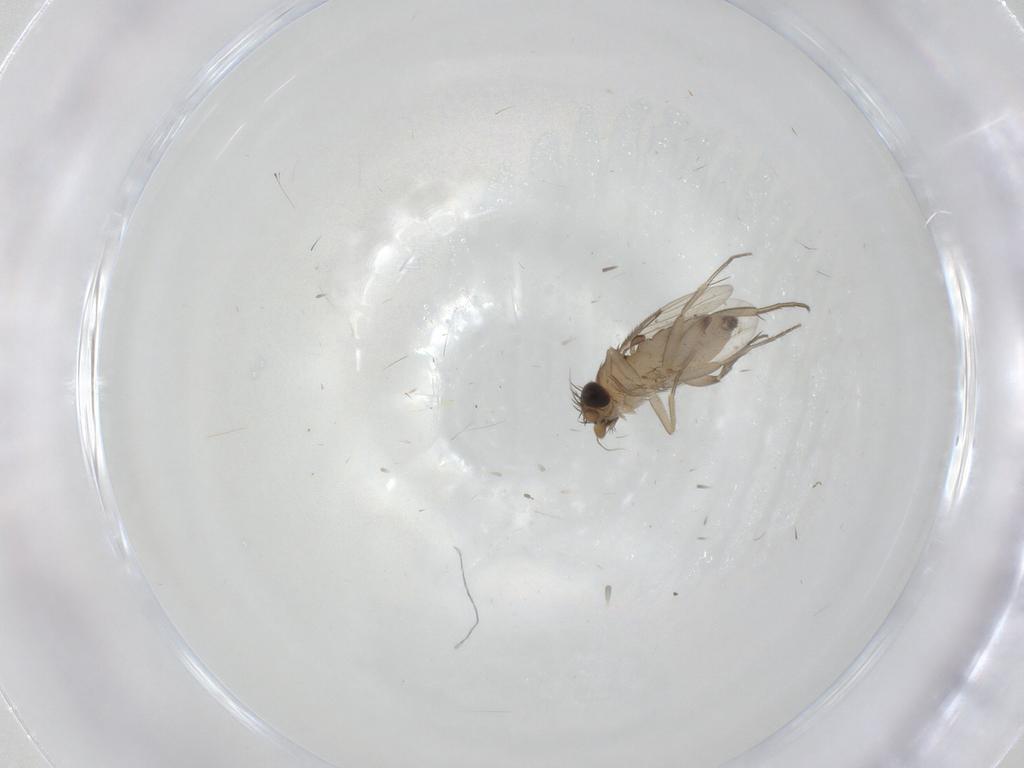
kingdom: Animalia
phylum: Arthropoda
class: Insecta
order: Diptera
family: Phoridae
